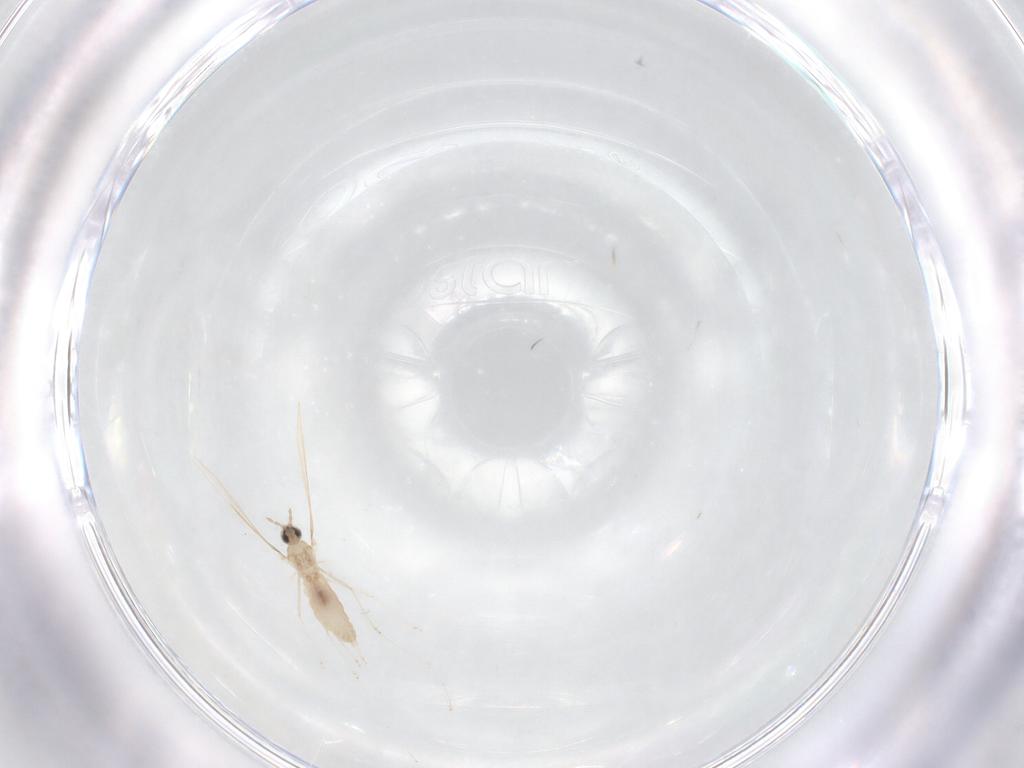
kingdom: Animalia
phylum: Arthropoda
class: Insecta
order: Diptera
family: Cecidomyiidae
